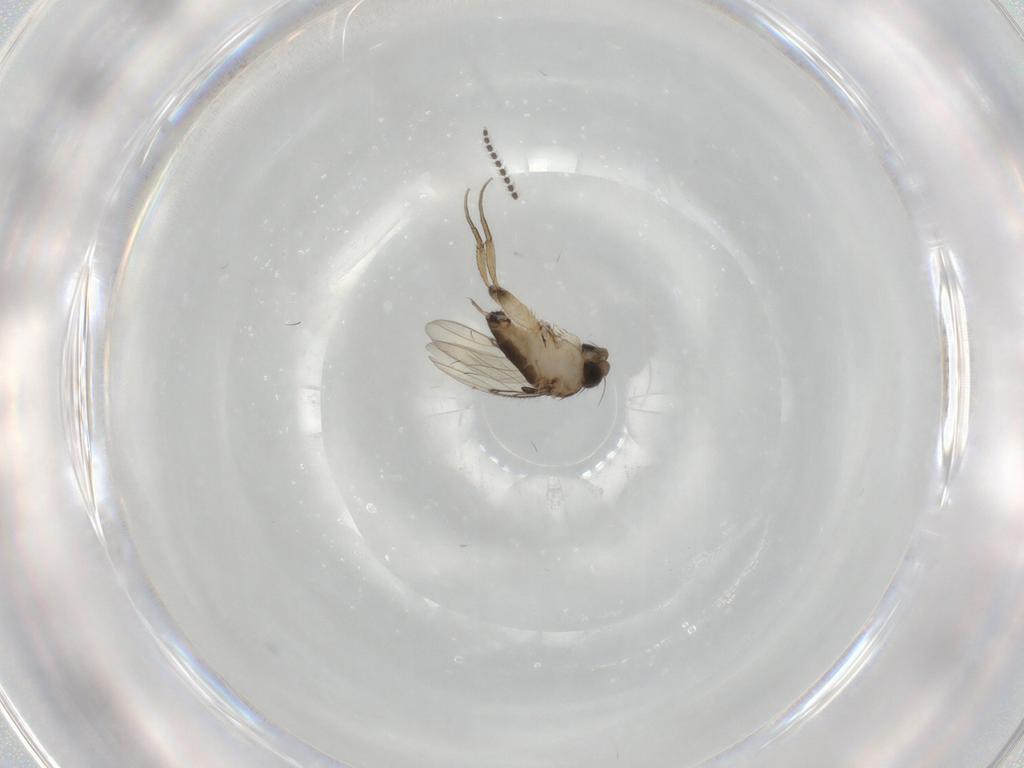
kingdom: Animalia
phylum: Arthropoda
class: Insecta
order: Diptera
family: Phoridae
